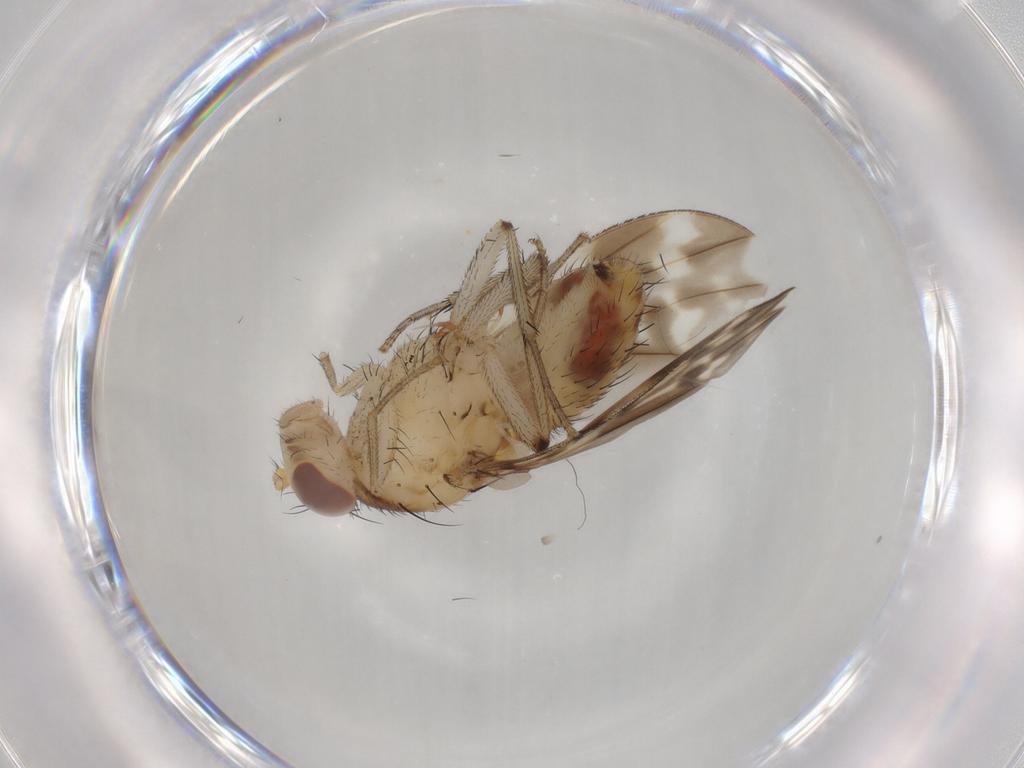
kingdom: Animalia
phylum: Arthropoda
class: Insecta
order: Diptera
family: Cecidomyiidae
